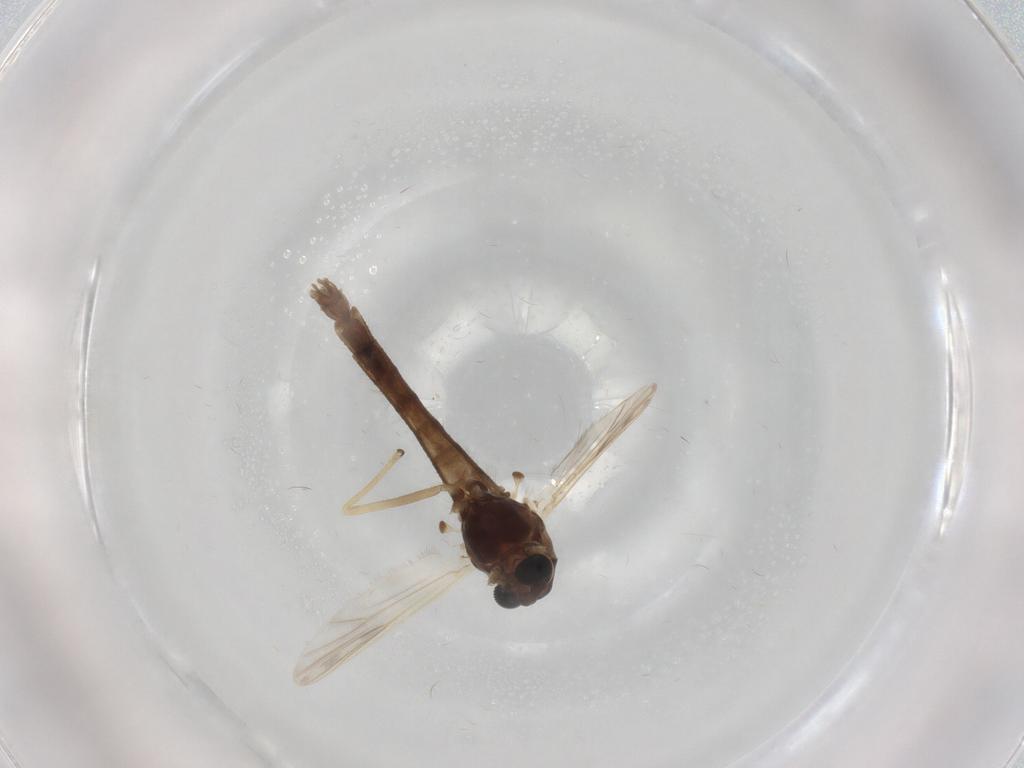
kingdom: Animalia
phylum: Arthropoda
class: Insecta
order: Diptera
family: Chironomidae
